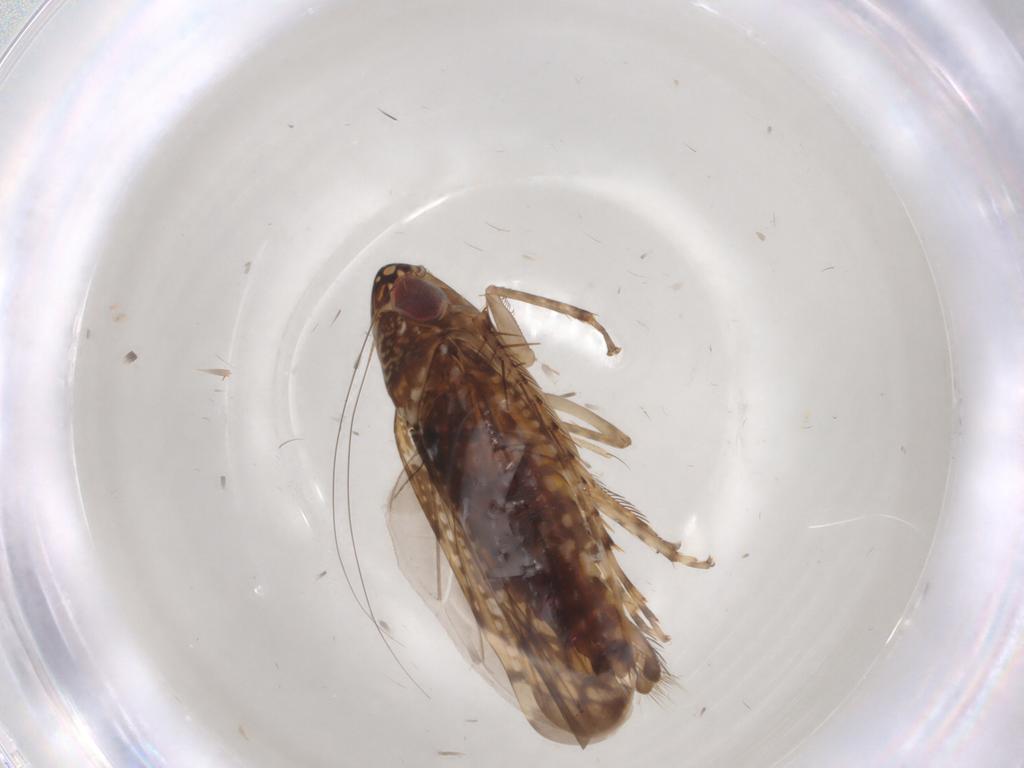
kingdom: Animalia
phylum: Arthropoda
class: Insecta
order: Hemiptera
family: Cicadellidae
